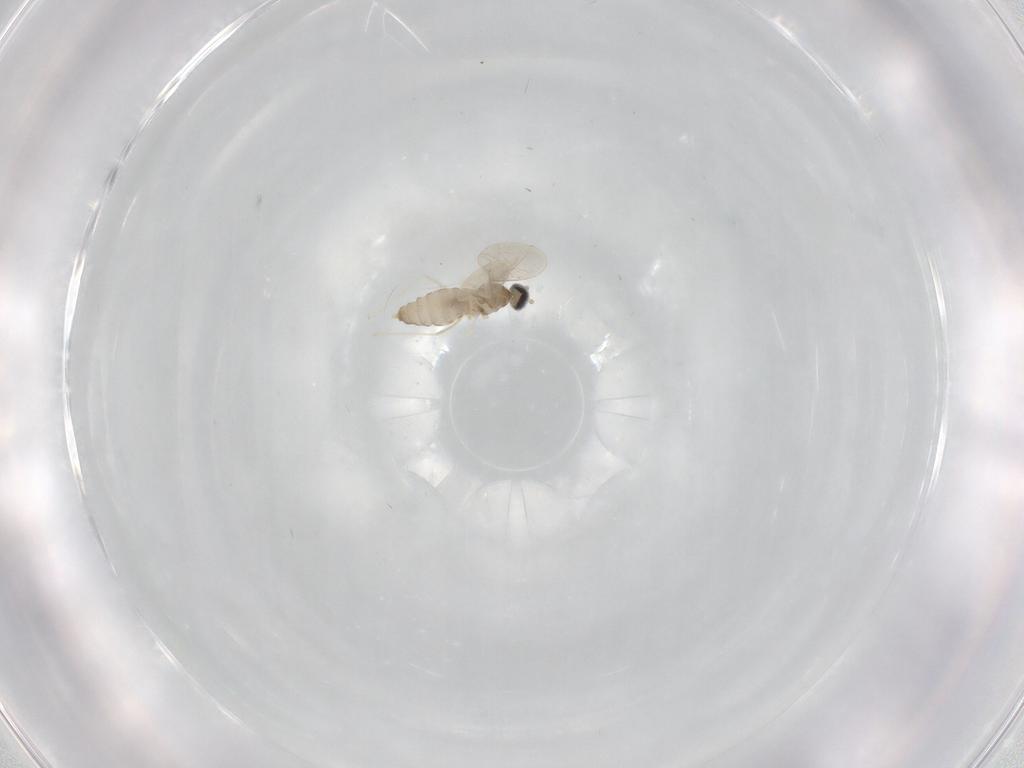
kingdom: Animalia
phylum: Arthropoda
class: Insecta
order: Diptera
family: Cecidomyiidae
